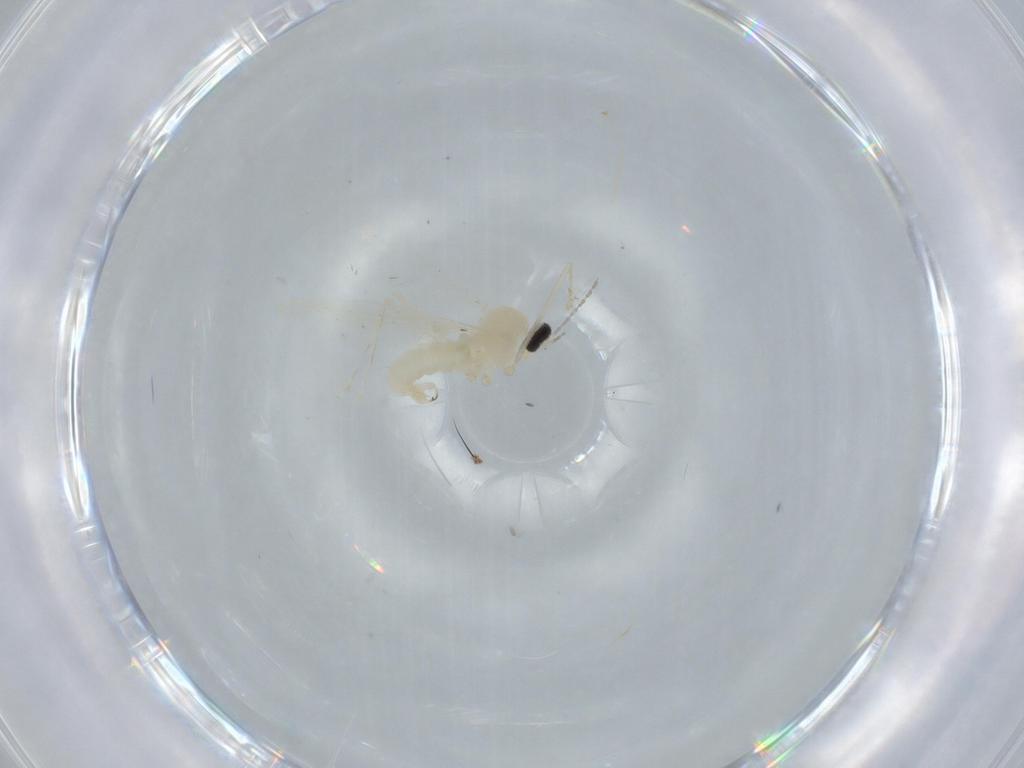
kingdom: Animalia
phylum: Arthropoda
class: Insecta
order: Diptera
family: Cecidomyiidae
